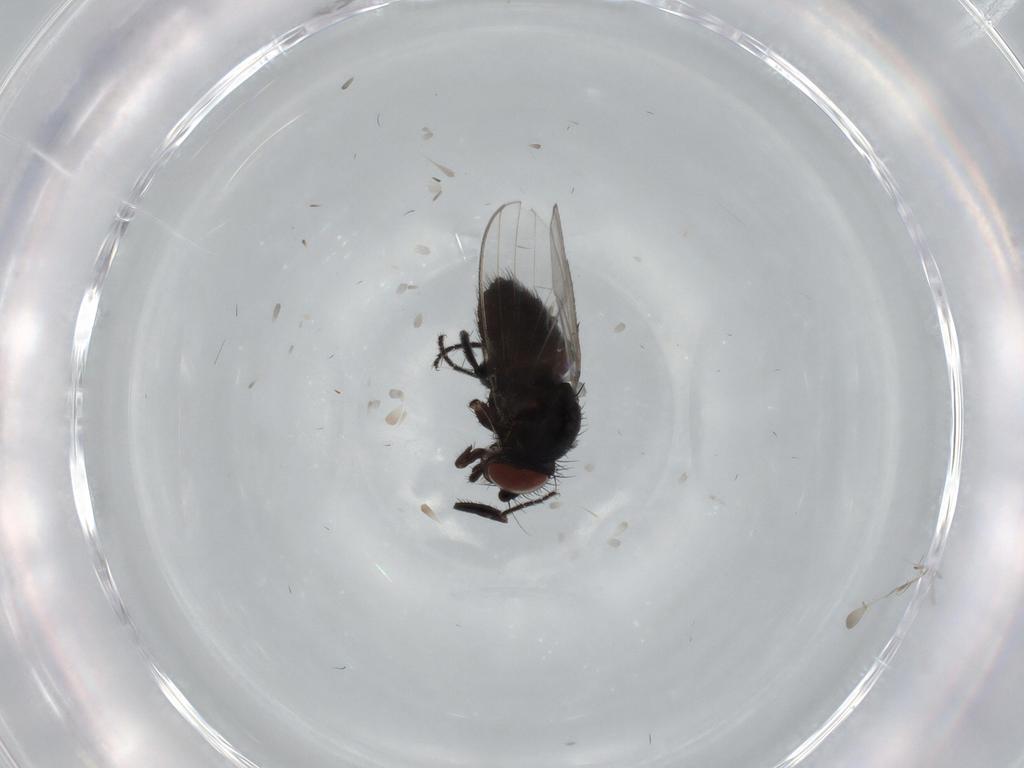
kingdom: Animalia
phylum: Arthropoda
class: Insecta
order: Diptera
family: Milichiidae
